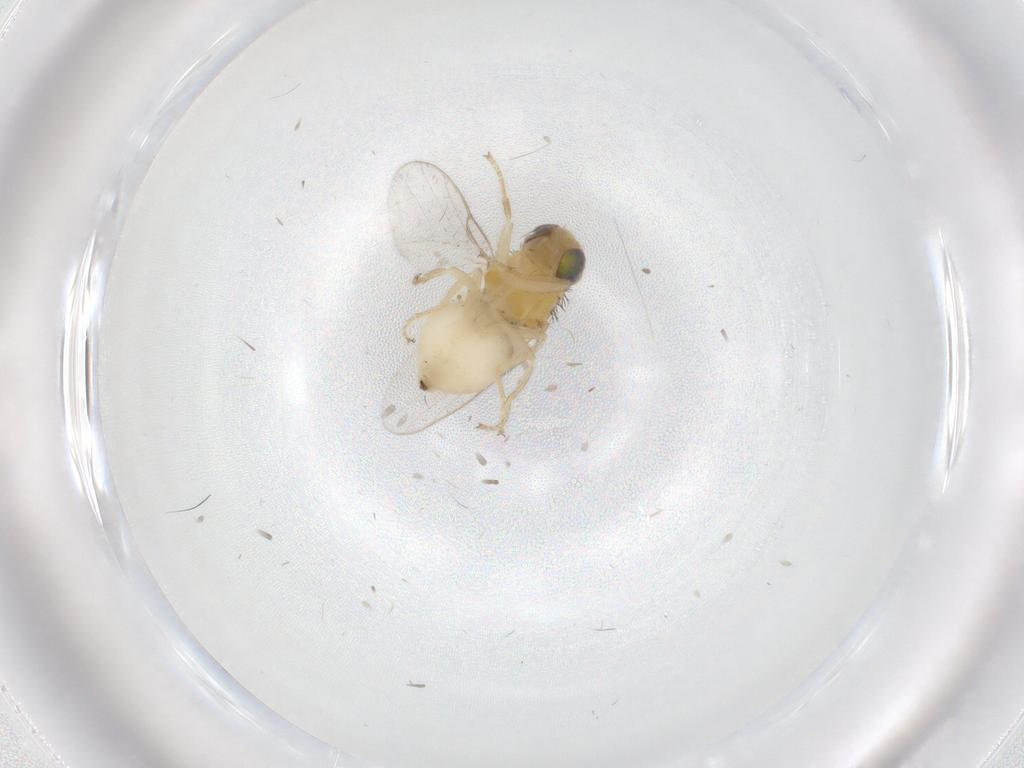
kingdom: Animalia
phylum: Arthropoda
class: Insecta
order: Diptera
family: Chloropidae
